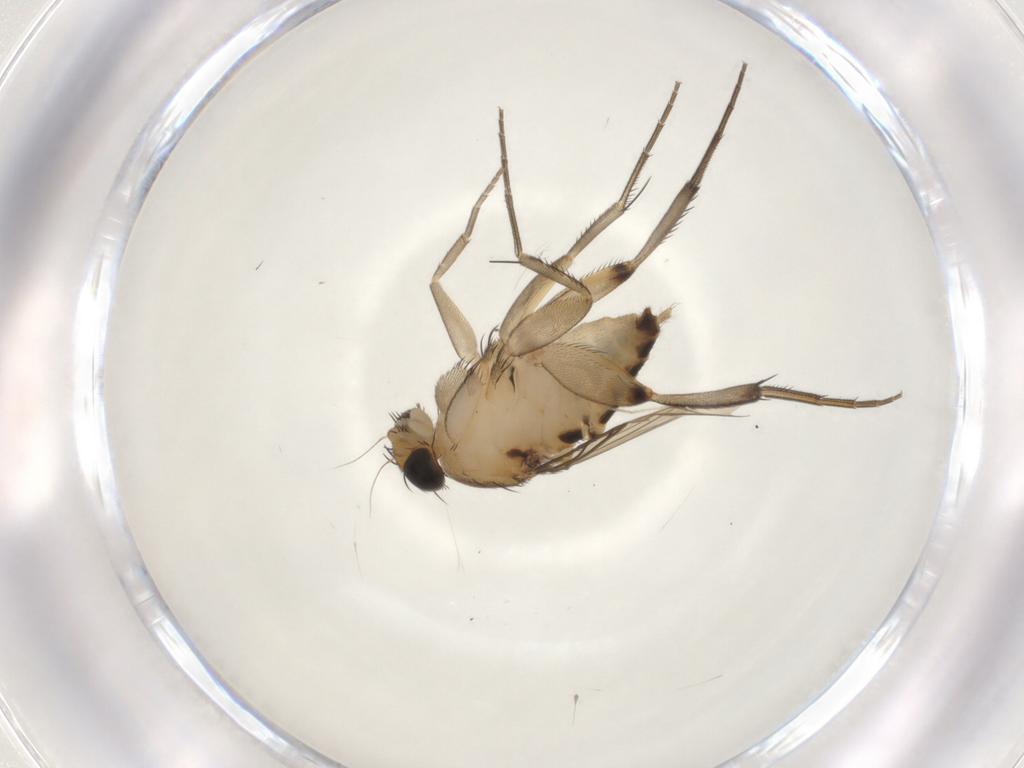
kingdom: Animalia
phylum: Arthropoda
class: Insecta
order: Diptera
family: Phoridae
